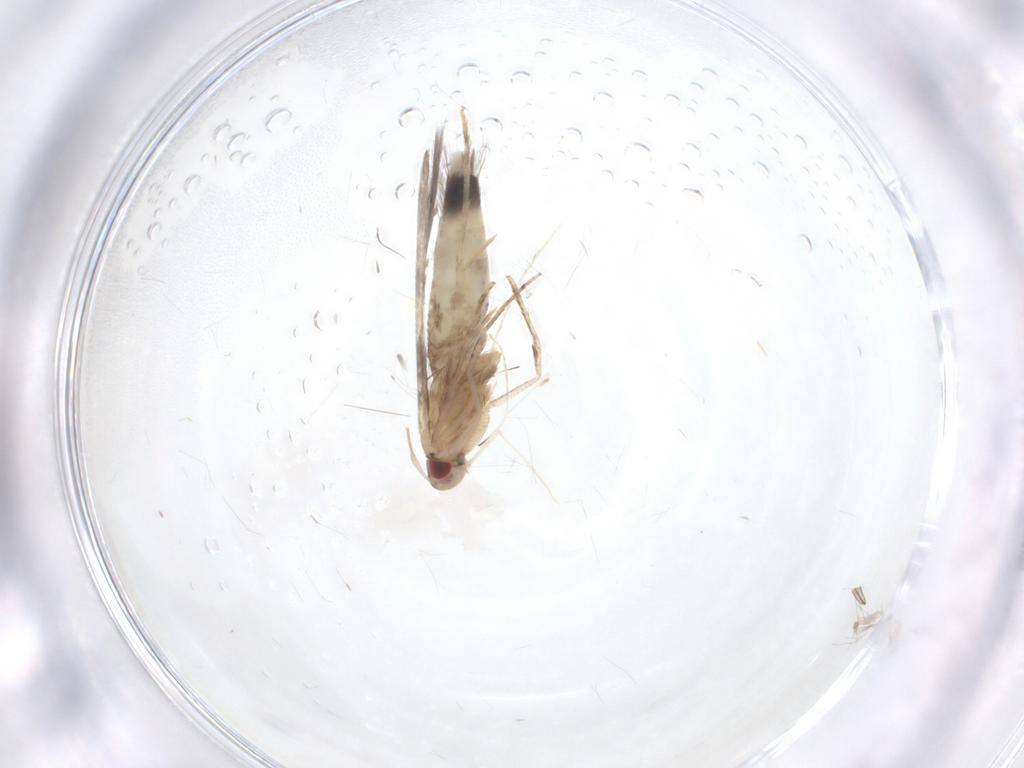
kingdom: Animalia
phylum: Arthropoda
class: Insecta
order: Lepidoptera
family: Cosmopterigidae
